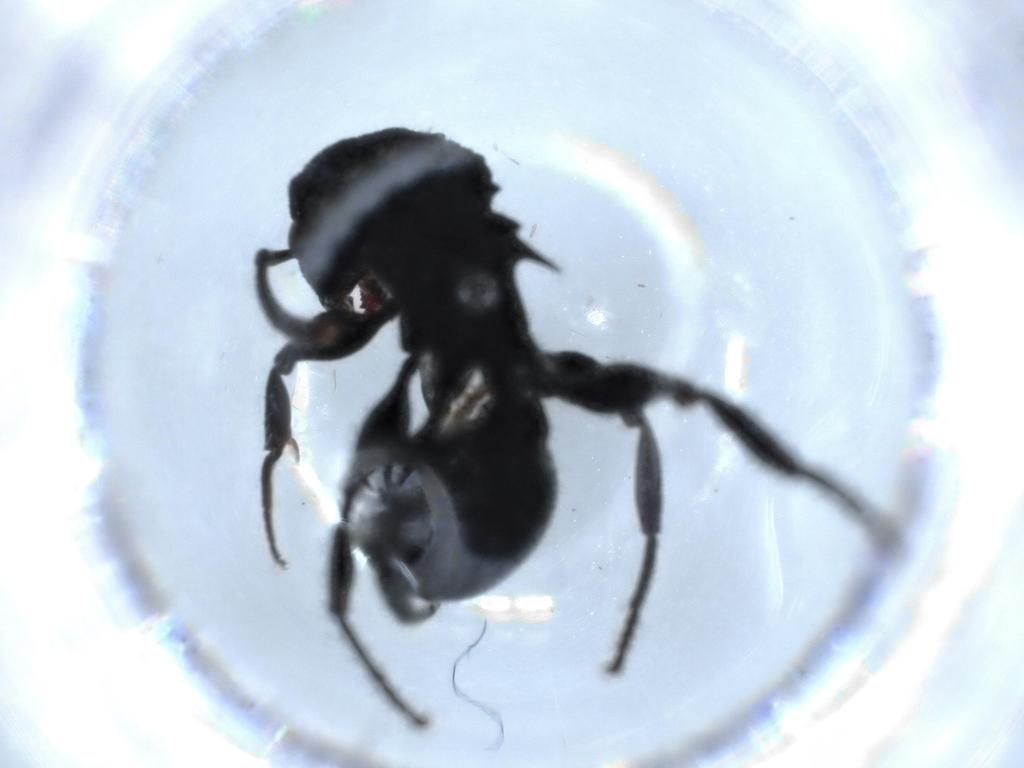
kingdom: Animalia
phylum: Arthropoda
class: Insecta
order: Hymenoptera
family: Formicidae
